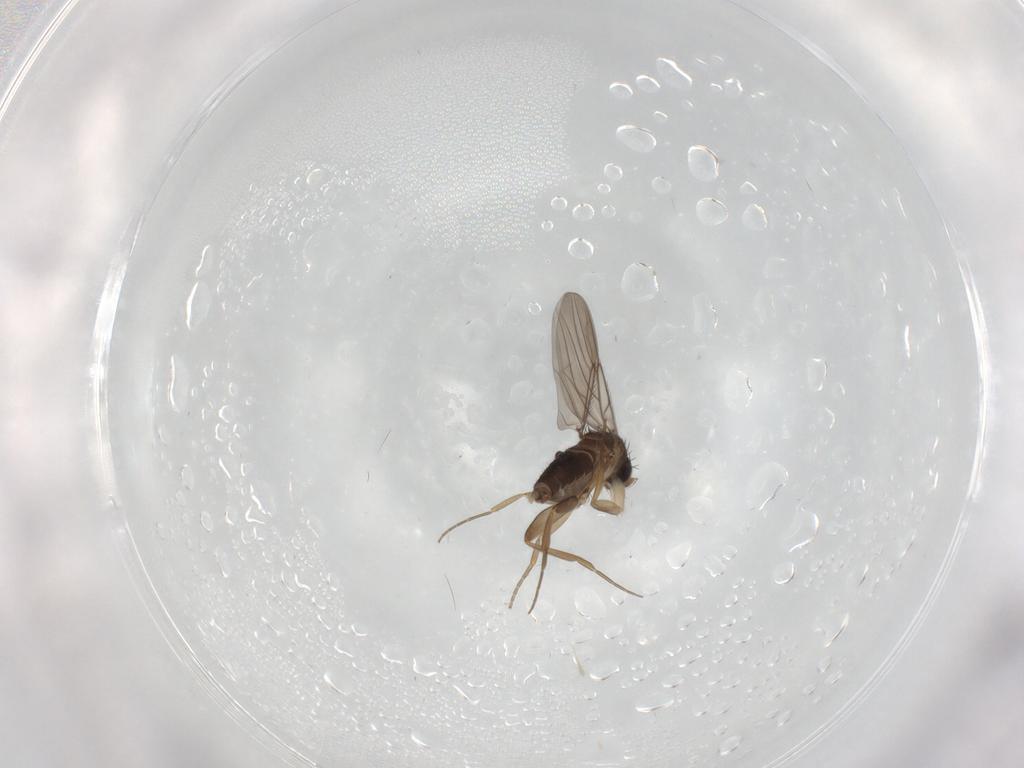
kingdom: Animalia
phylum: Arthropoda
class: Insecta
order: Diptera
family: Phoridae
